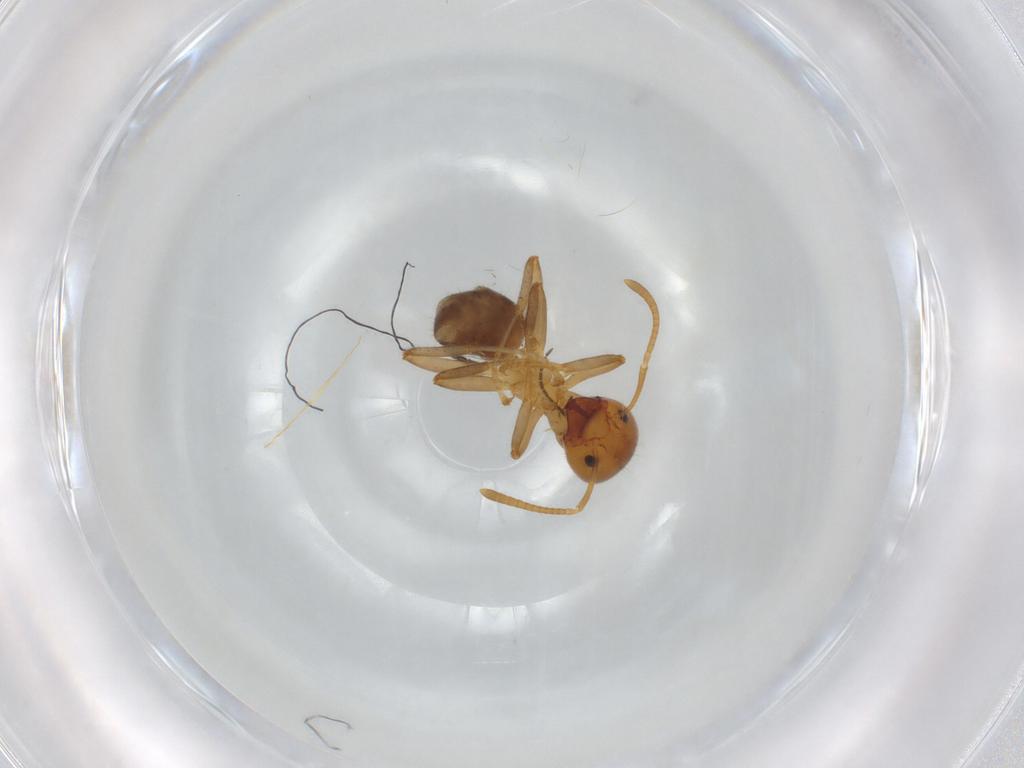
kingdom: Animalia
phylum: Arthropoda
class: Insecta
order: Hymenoptera
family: Formicidae
